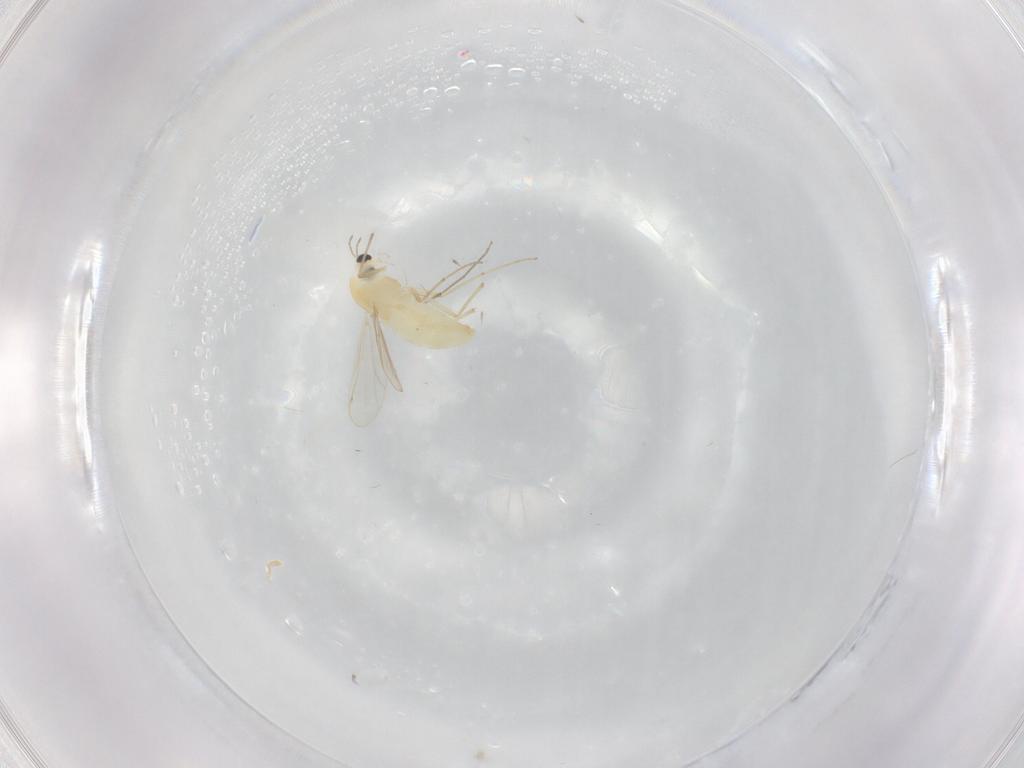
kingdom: Animalia
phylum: Arthropoda
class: Insecta
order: Diptera
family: Chironomidae
